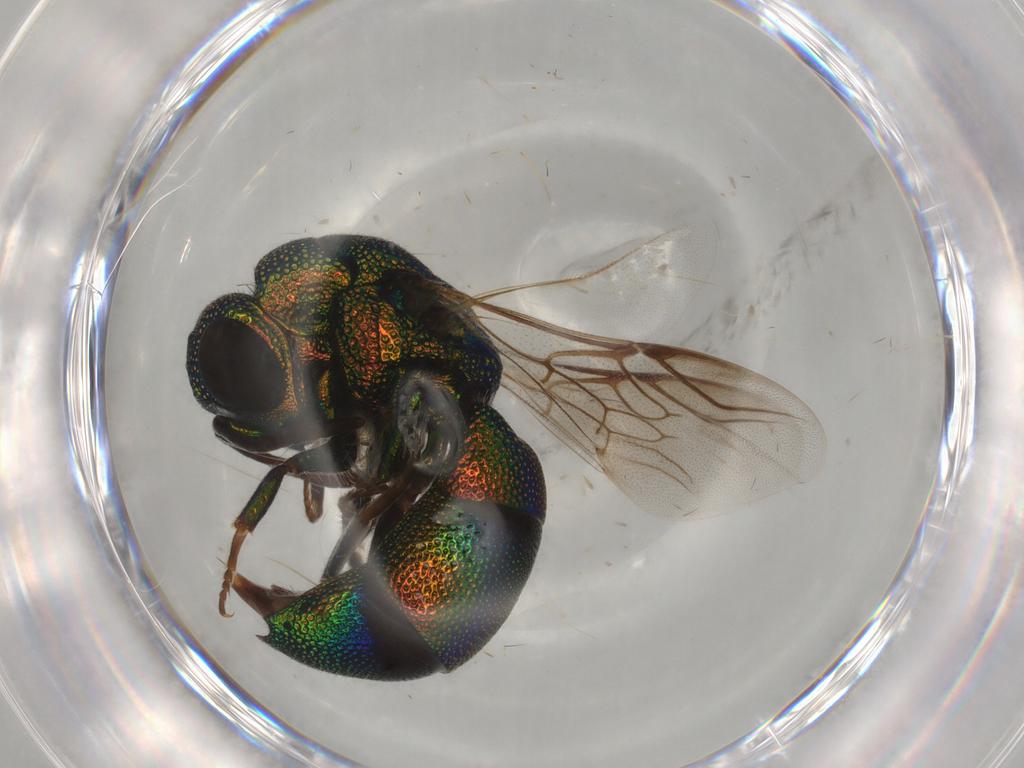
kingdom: Animalia
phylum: Arthropoda
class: Insecta
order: Hymenoptera
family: Chrysididae
